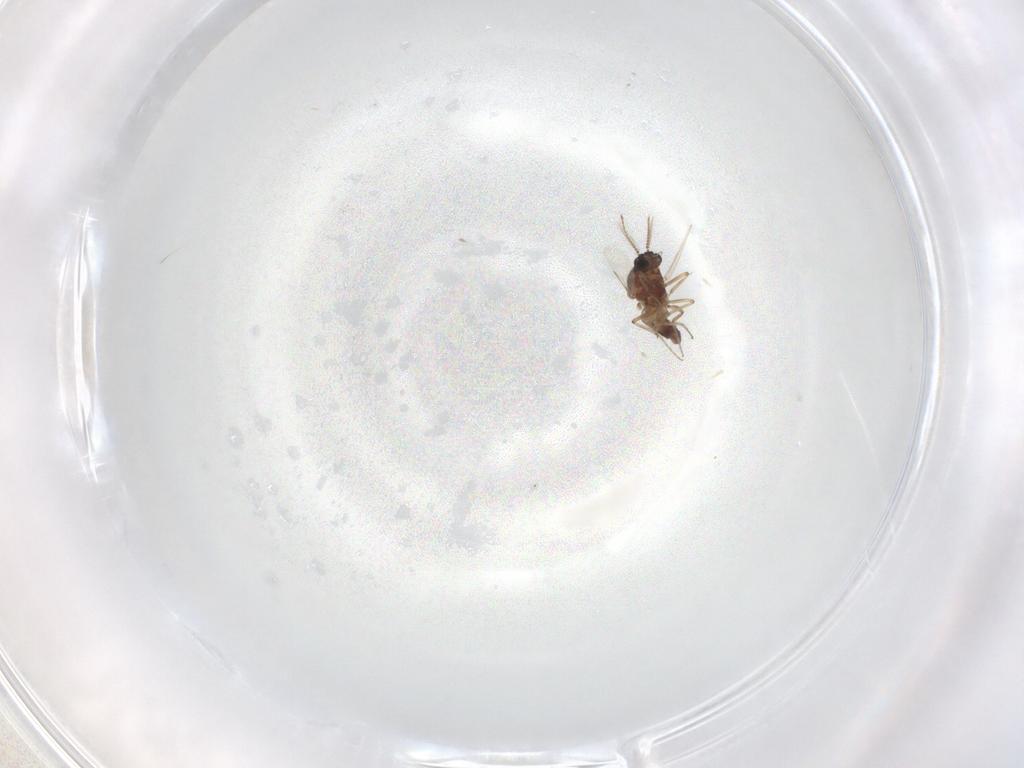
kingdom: Animalia
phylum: Arthropoda
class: Insecta
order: Diptera
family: Ceratopogonidae
